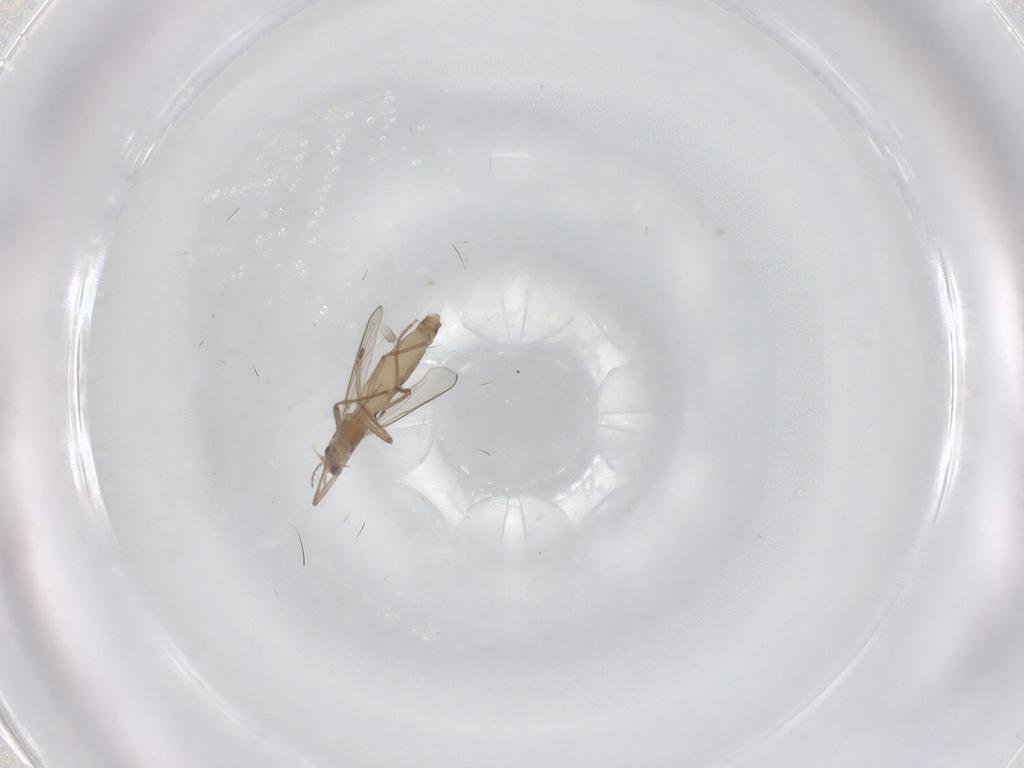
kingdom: Animalia
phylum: Arthropoda
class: Insecta
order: Diptera
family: Chironomidae
